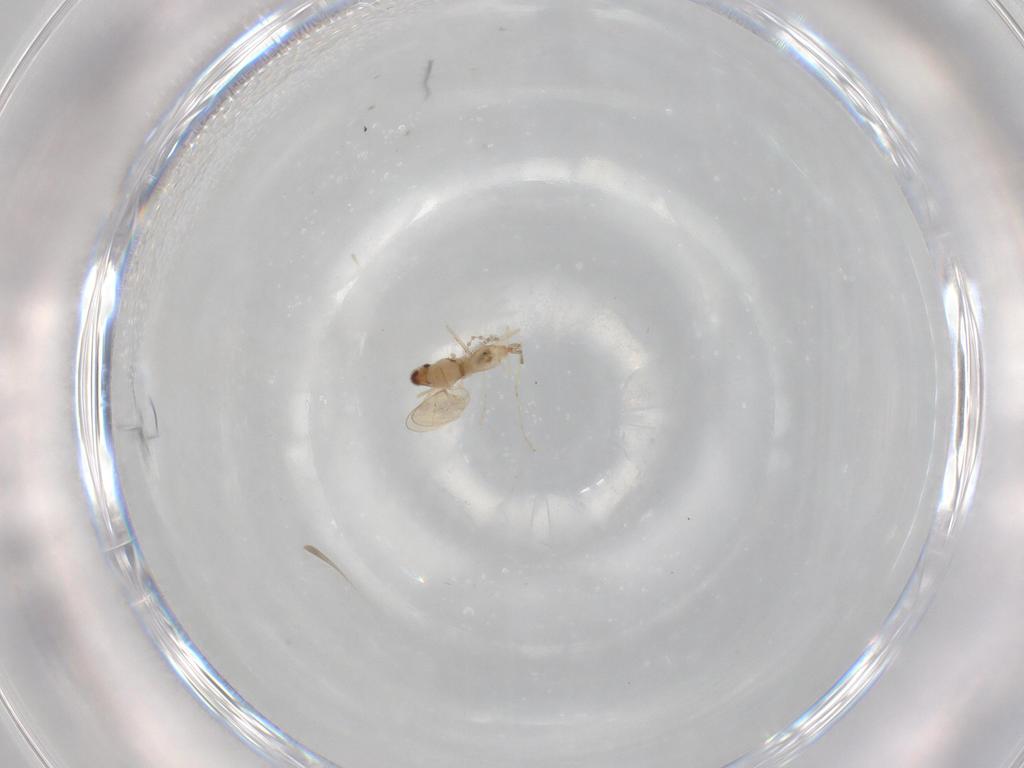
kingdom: Animalia
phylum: Arthropoda
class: Insecta
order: Diptera
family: Cecidomyiidae
